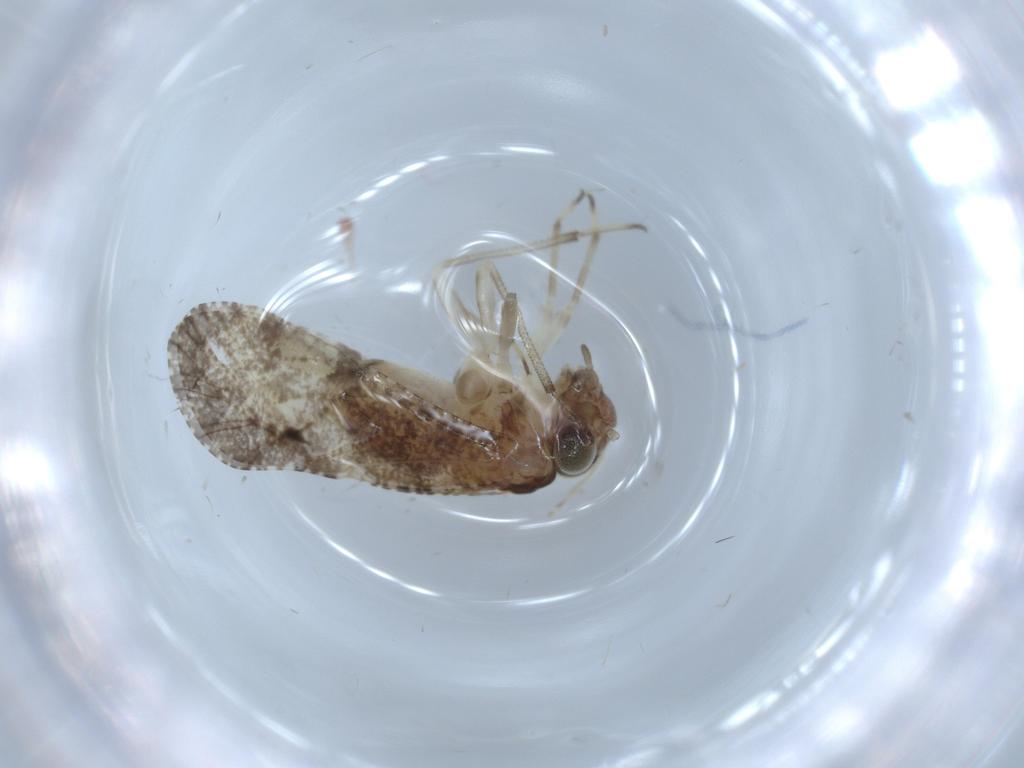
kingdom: Animalia
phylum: Arthropoda
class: Insecta
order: Psocodea
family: Myopsocidae
